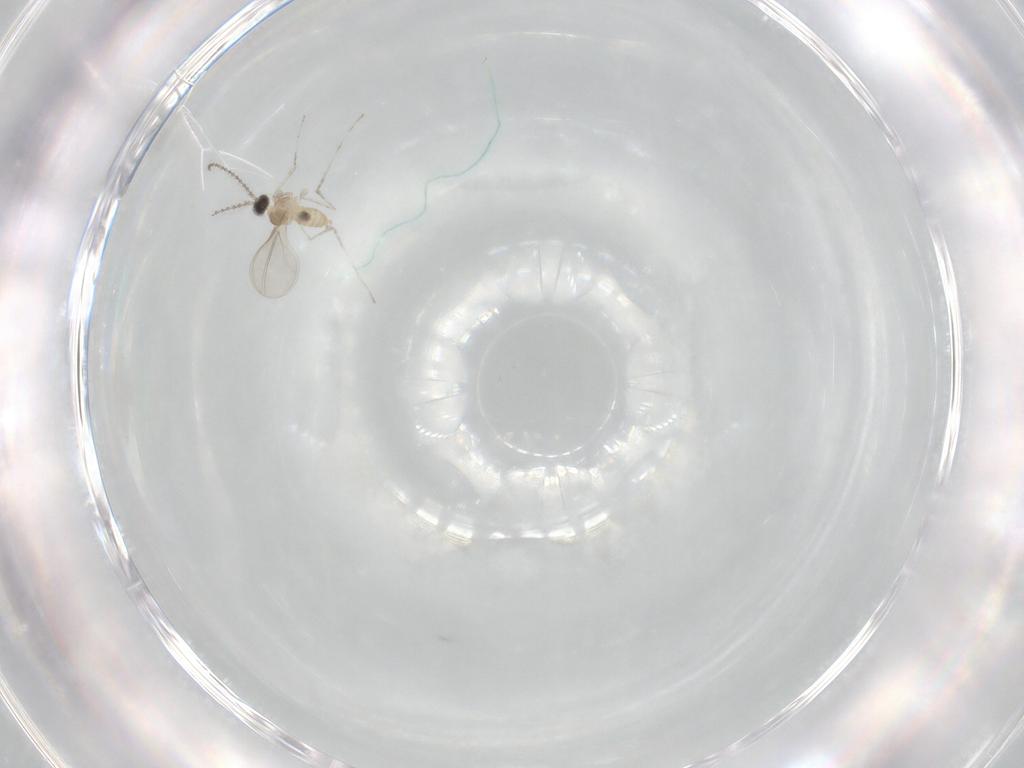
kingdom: Animalia
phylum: Arthropoda
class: Insecta
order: Diptera
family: Cecidomyiidae
